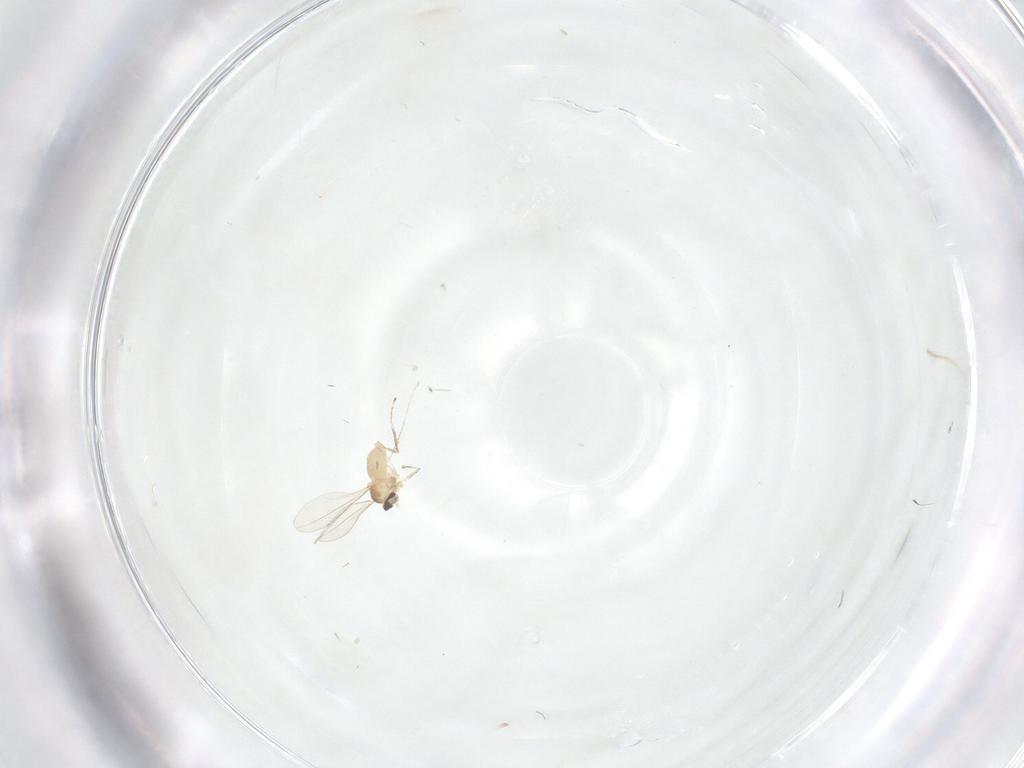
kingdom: Animalia
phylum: Arthropoda
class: Insecta
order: Diptera
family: Cecidomyiidae
